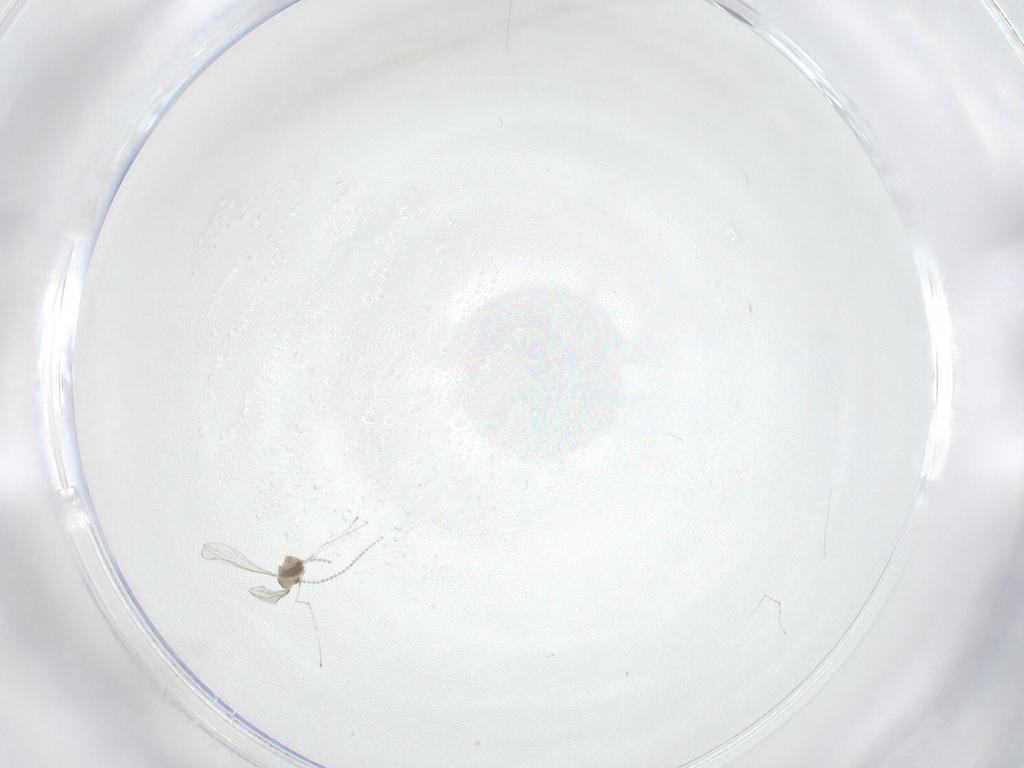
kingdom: Animalia
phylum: Arthropoda
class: Insecta
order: Diptera
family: Cecidomyiidae
